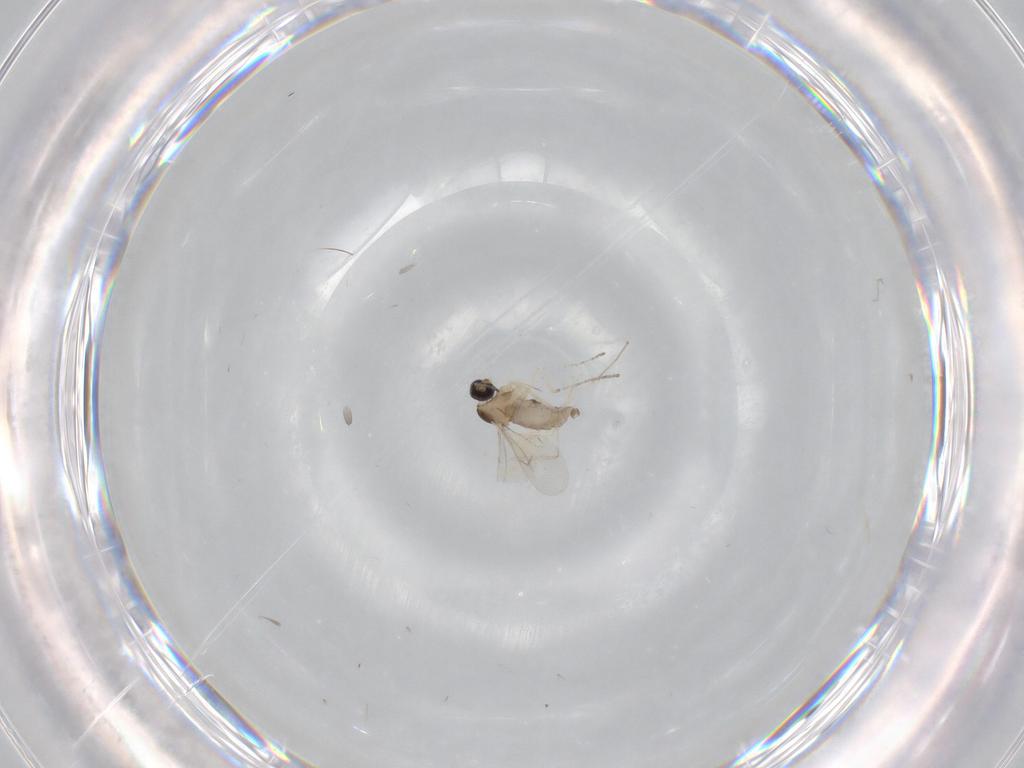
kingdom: Animalia
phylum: Arthropoda
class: Insecta
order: Diptera
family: Cecidomyiidae
